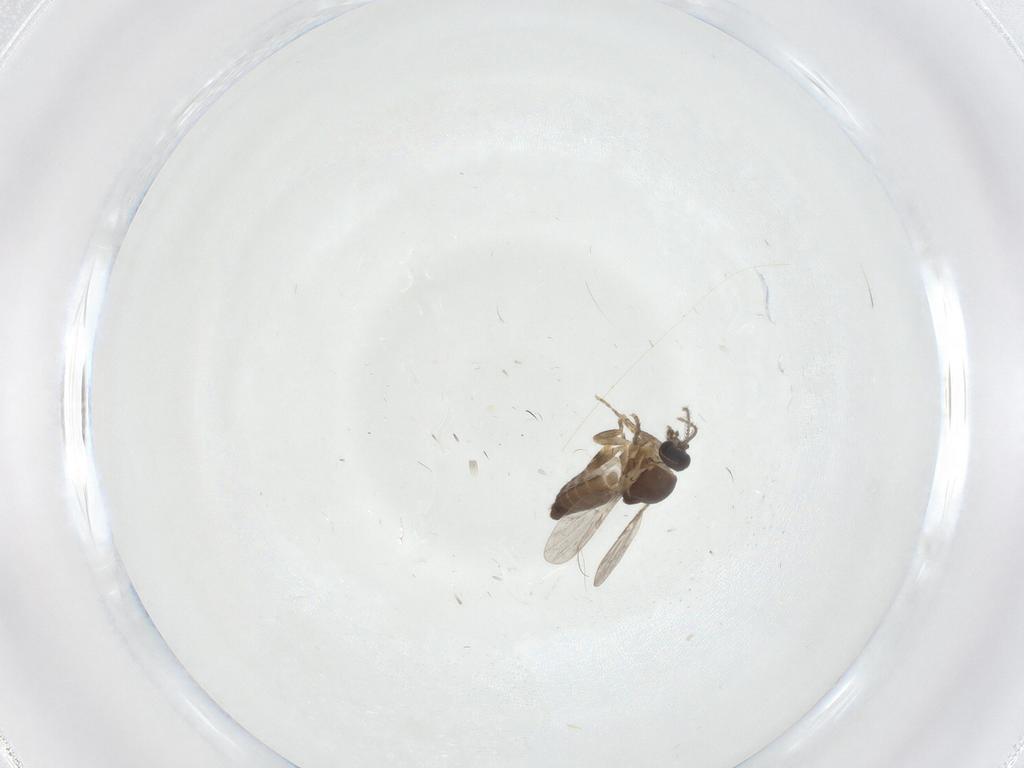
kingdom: Animalia
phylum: Arthropoda
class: Insecta
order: Diptera
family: Ceratopogonidae
